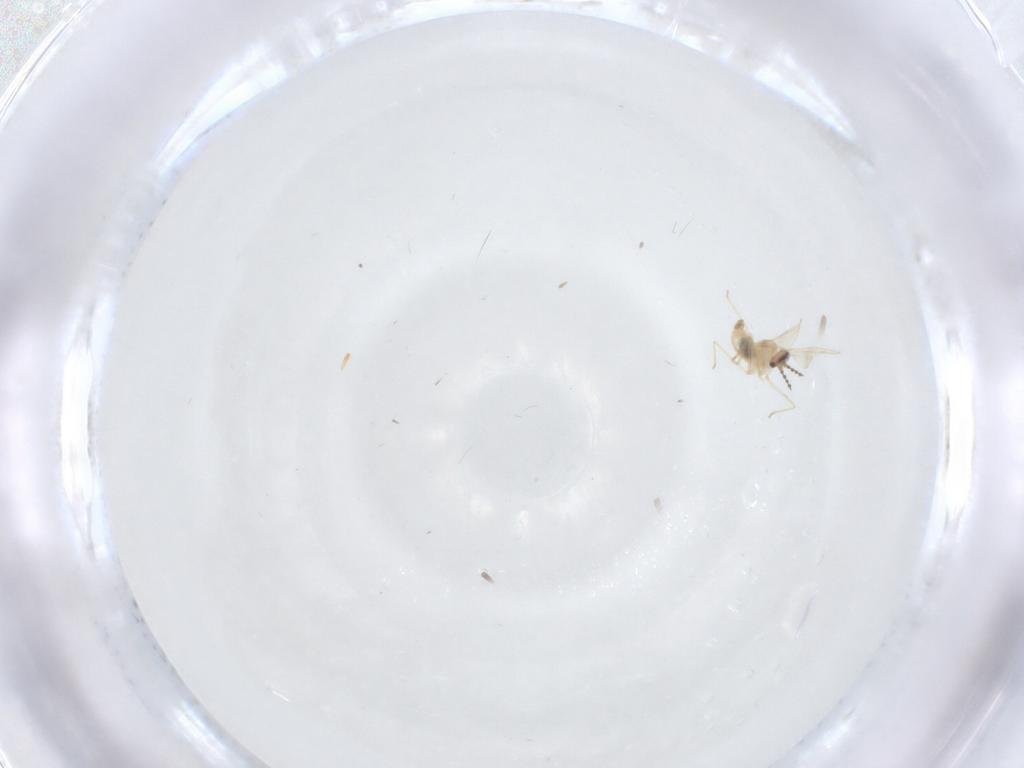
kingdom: Animalia
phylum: Arthropoda
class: Insecta
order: Diptera
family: Cecidomyiidae
